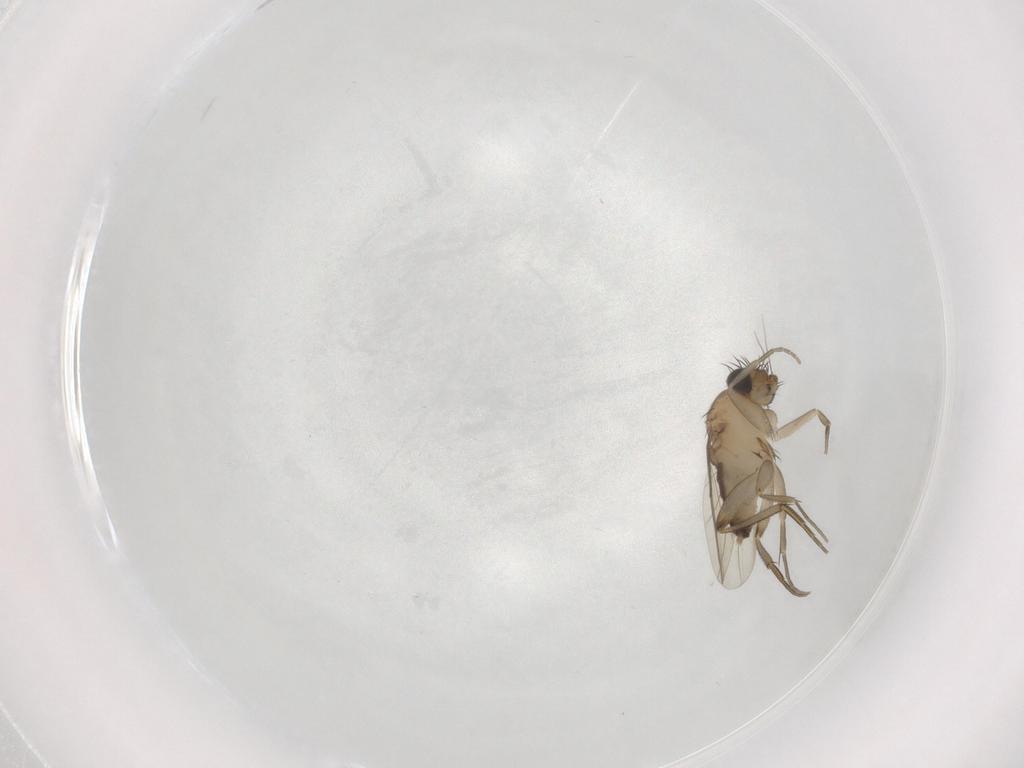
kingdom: Animalia
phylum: Arthropoda
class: Insecta
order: Diptera
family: Phoridae
